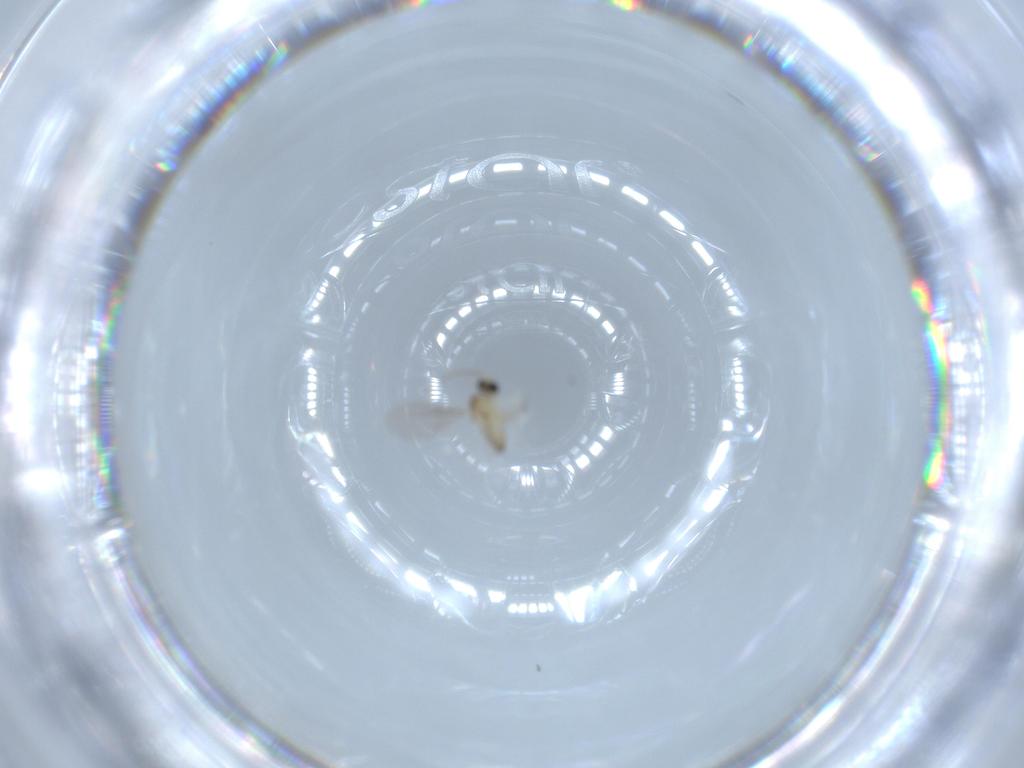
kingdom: Animalia
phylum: Arthropoda
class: Insecta
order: Diptera
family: Cecidomyiidae
